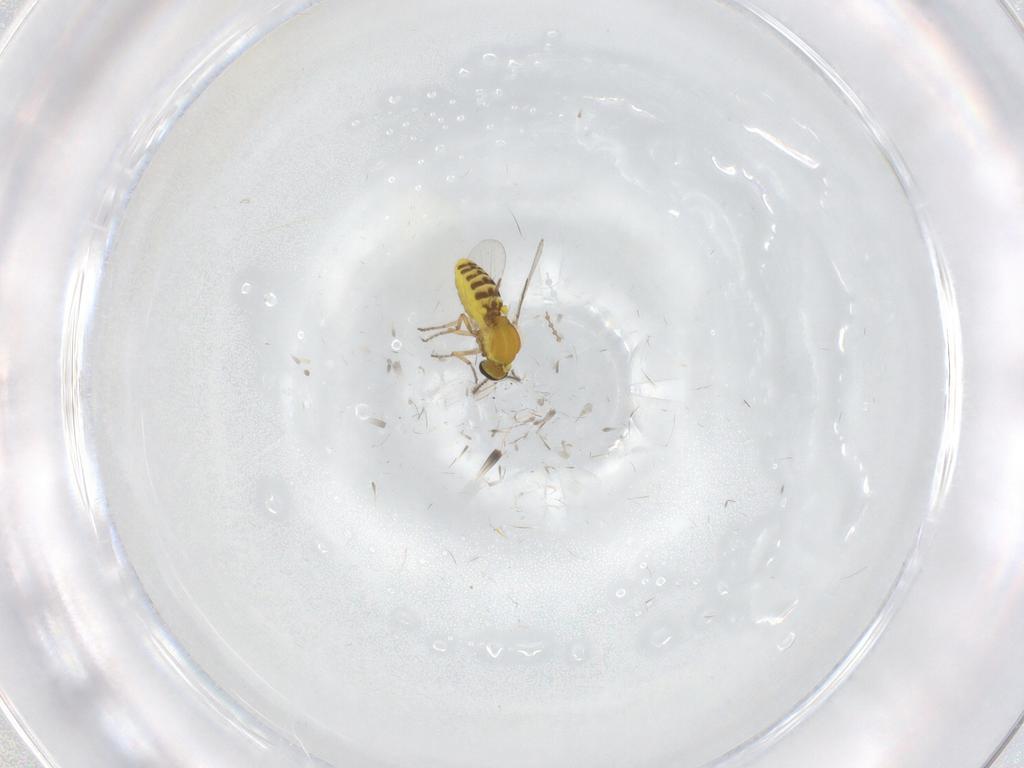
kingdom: Animalia
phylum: Arthropoda
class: Insecta
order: Diptera
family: Ceratopogonidae
